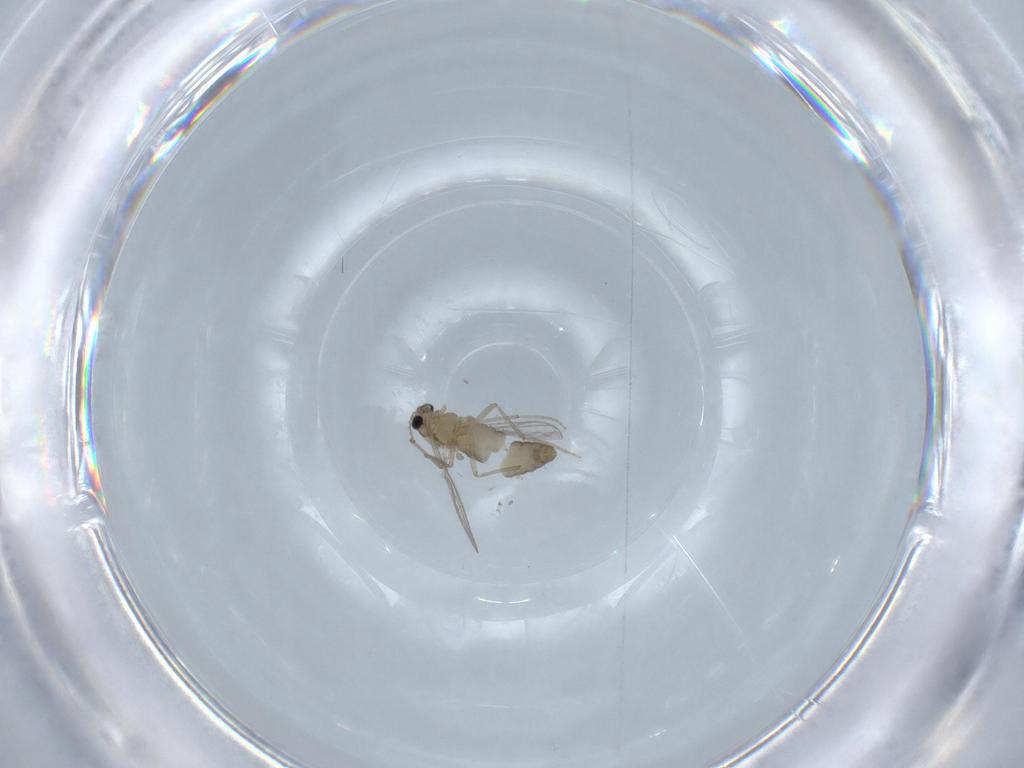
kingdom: Animalia
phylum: Arthropoda
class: Insecta
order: Diptera
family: Chironomidae
